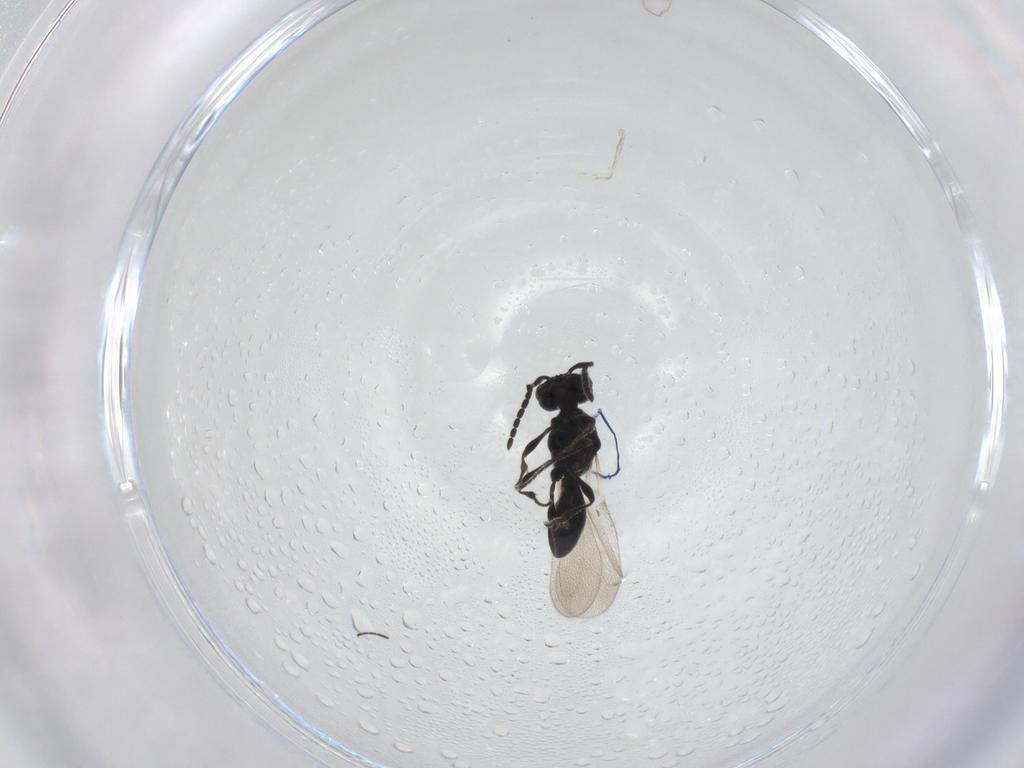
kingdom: Animalia
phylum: Arthropoda
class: Insecta
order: Hymenoptera
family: Platygastridae
